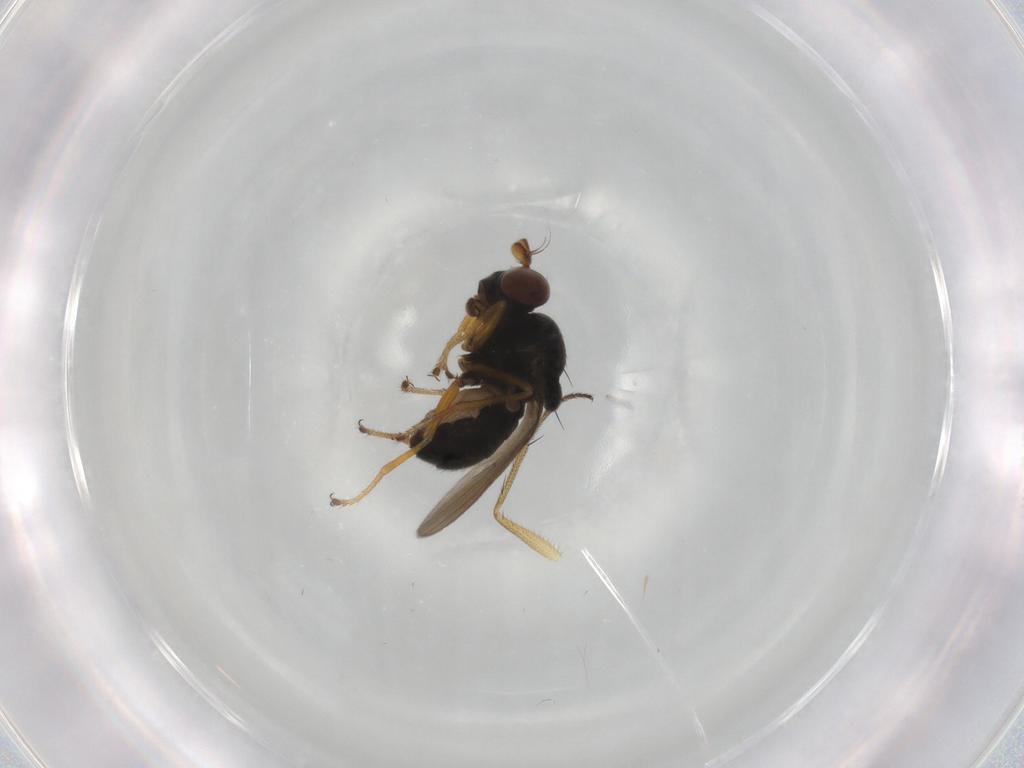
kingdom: Animalia
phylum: Arthropoda
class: Insecta
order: Diptera
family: Ephydridae
